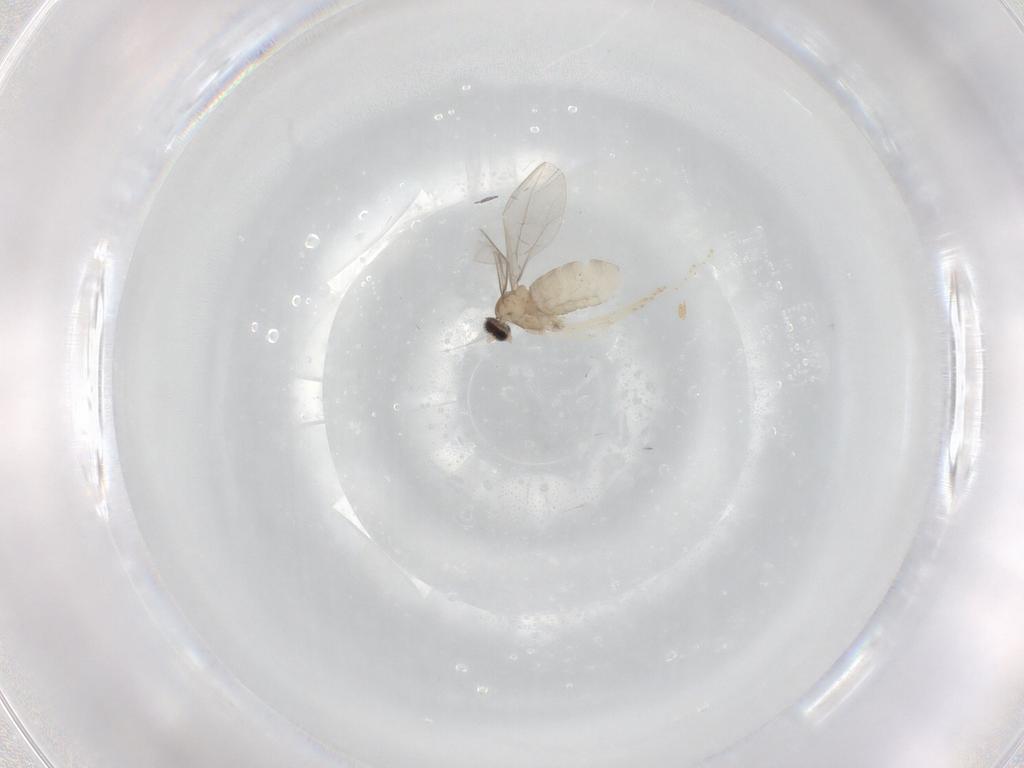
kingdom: Animalia
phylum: Arthropoda
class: Insecta
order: Diptera
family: Cecidomyiidae
